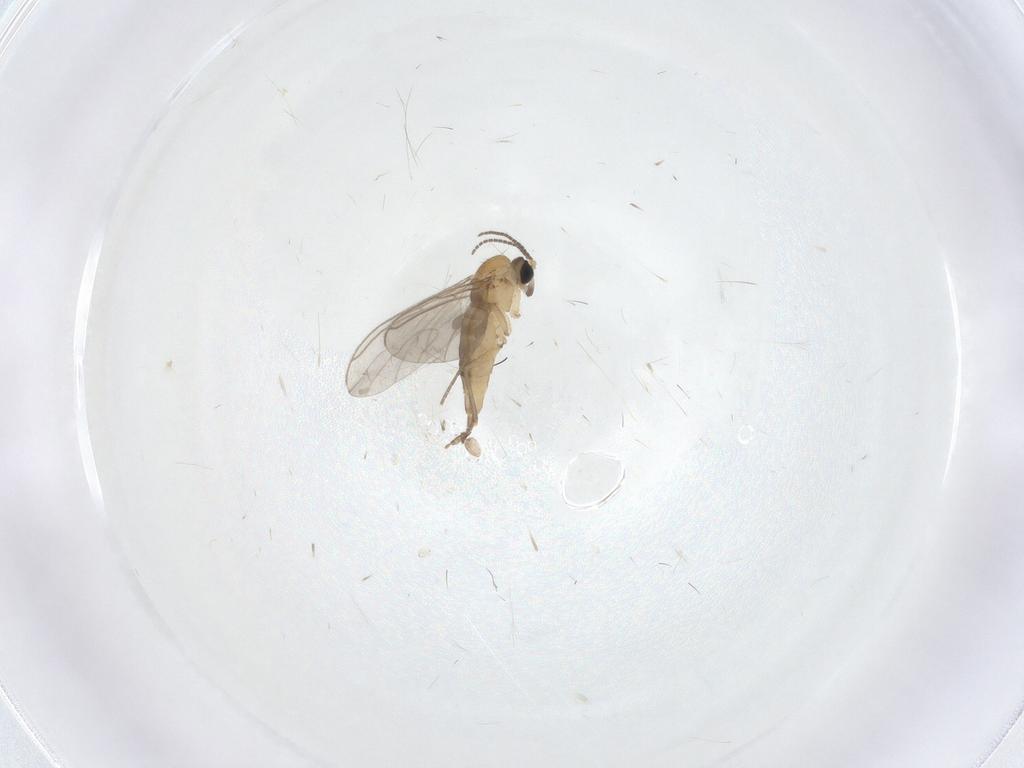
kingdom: Animalia
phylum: Arthropoda
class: Insecta
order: Diptera
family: Sciaridae
